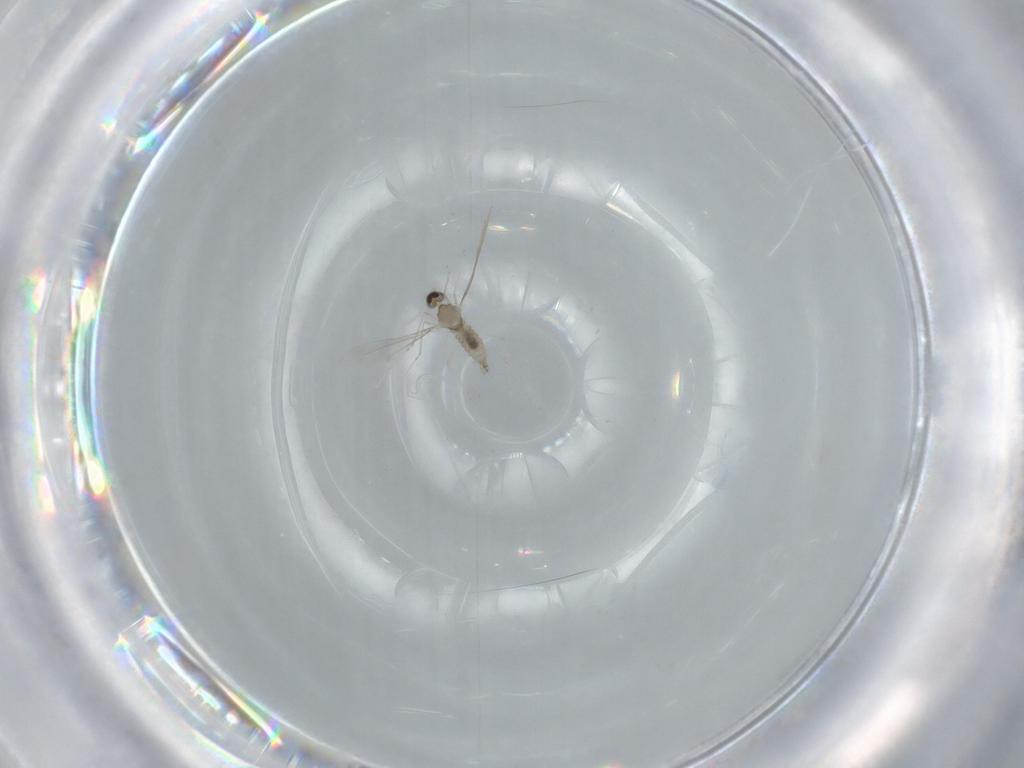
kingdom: Animalia
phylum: Arthropoda
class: Insecta
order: Diptera
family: Cecidomyiidae
